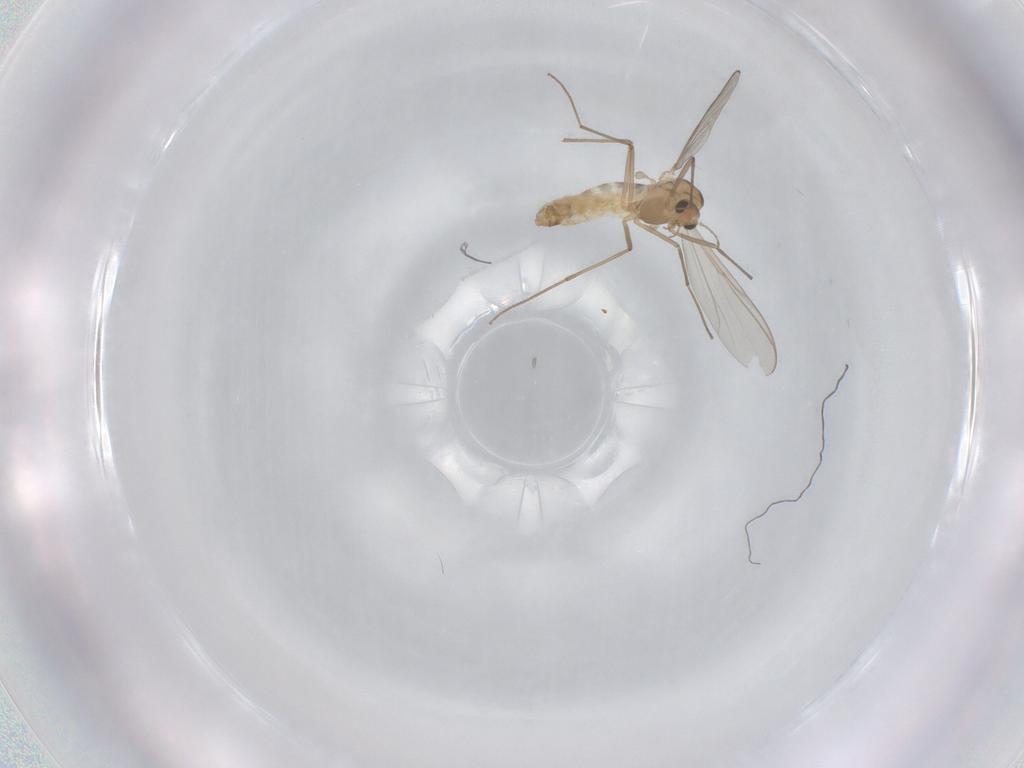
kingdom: Animalia
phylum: Arthropoda
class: Insecta
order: Diptera
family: Chironomidae
